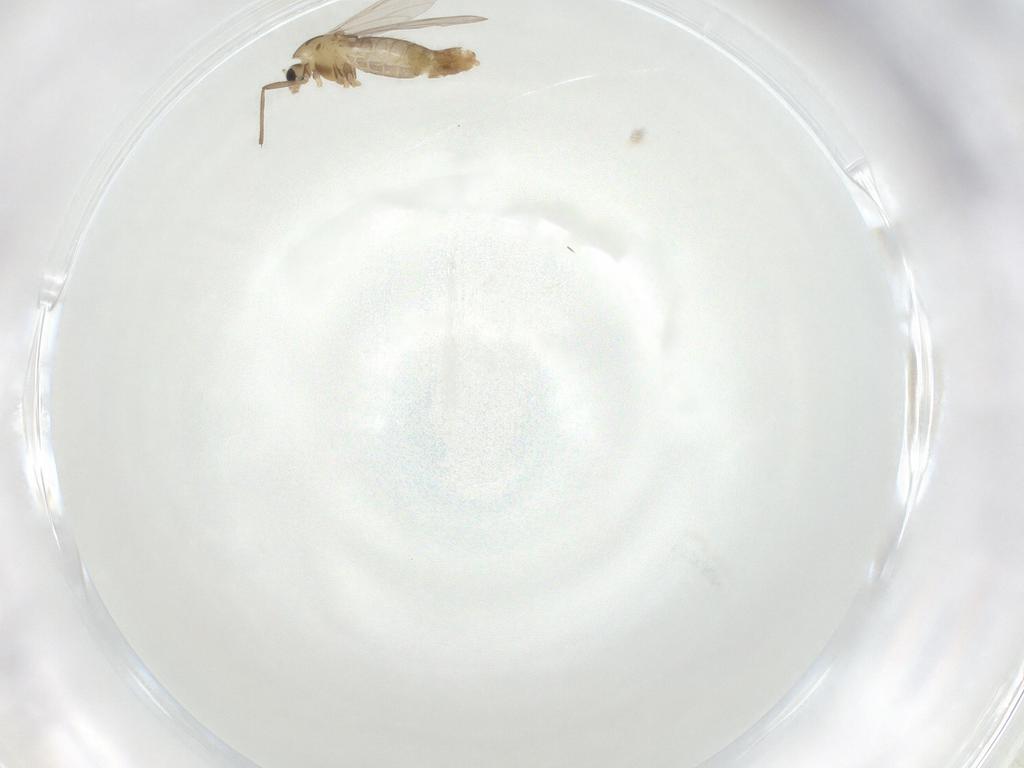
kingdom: Animalia
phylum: Arthropoda
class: Insecta
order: Diptera
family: Chironomidae
